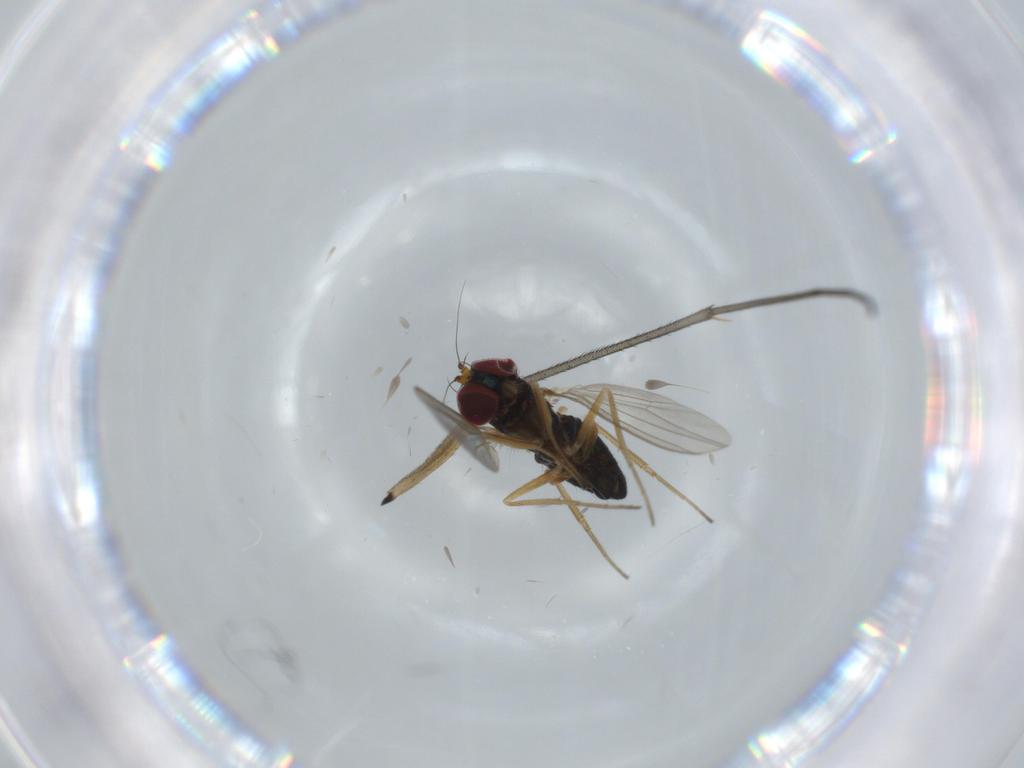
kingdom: Animalia
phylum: Arthropoda
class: Insecta
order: Diptera
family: Dolichopodidae
